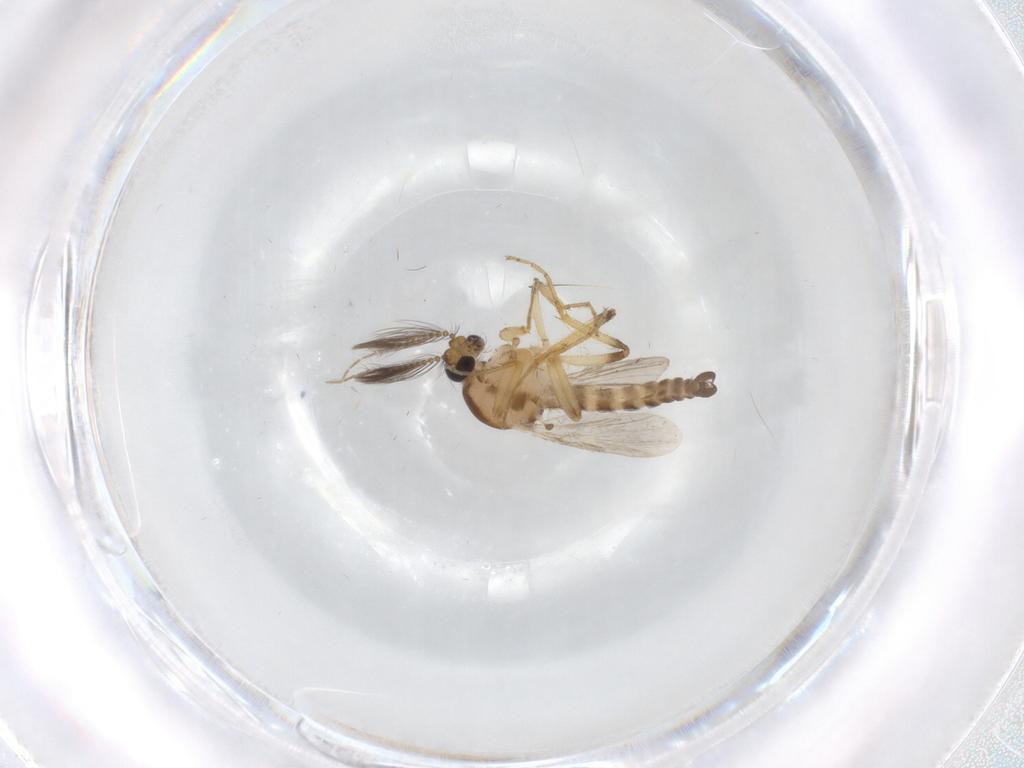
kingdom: Animalia
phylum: Arthropoda
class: Insecta
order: Diptera
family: Ceratopogonidae
